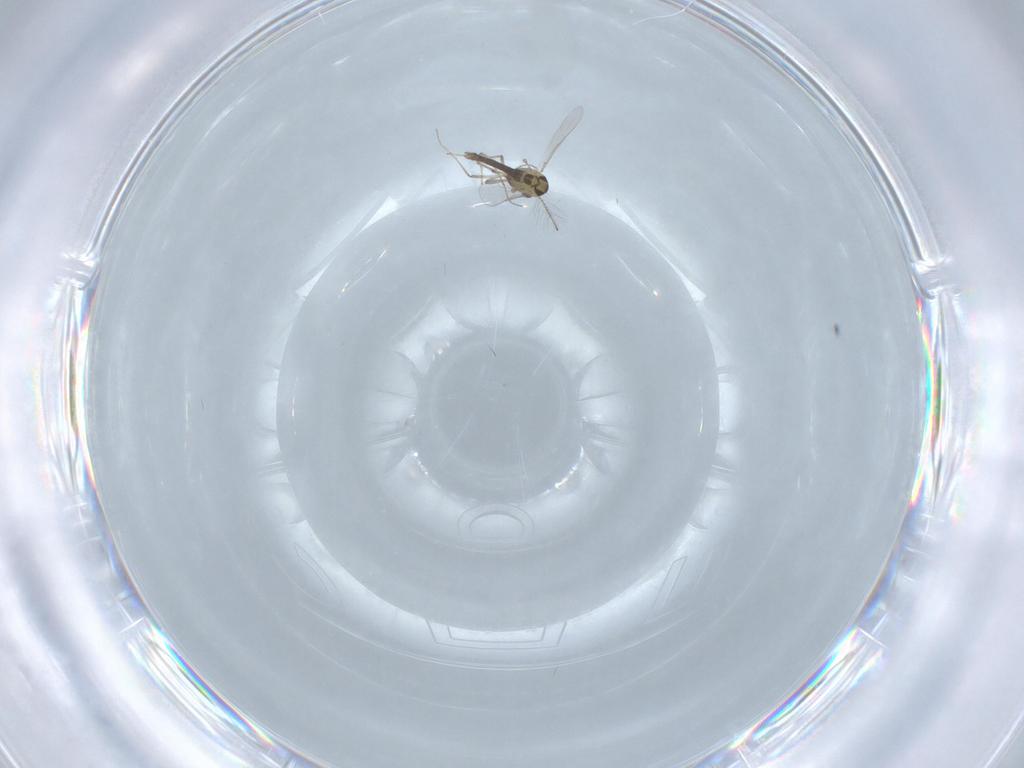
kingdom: Animalia
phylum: Arthropoda
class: Insecta
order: Diptera
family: Chironomidae
